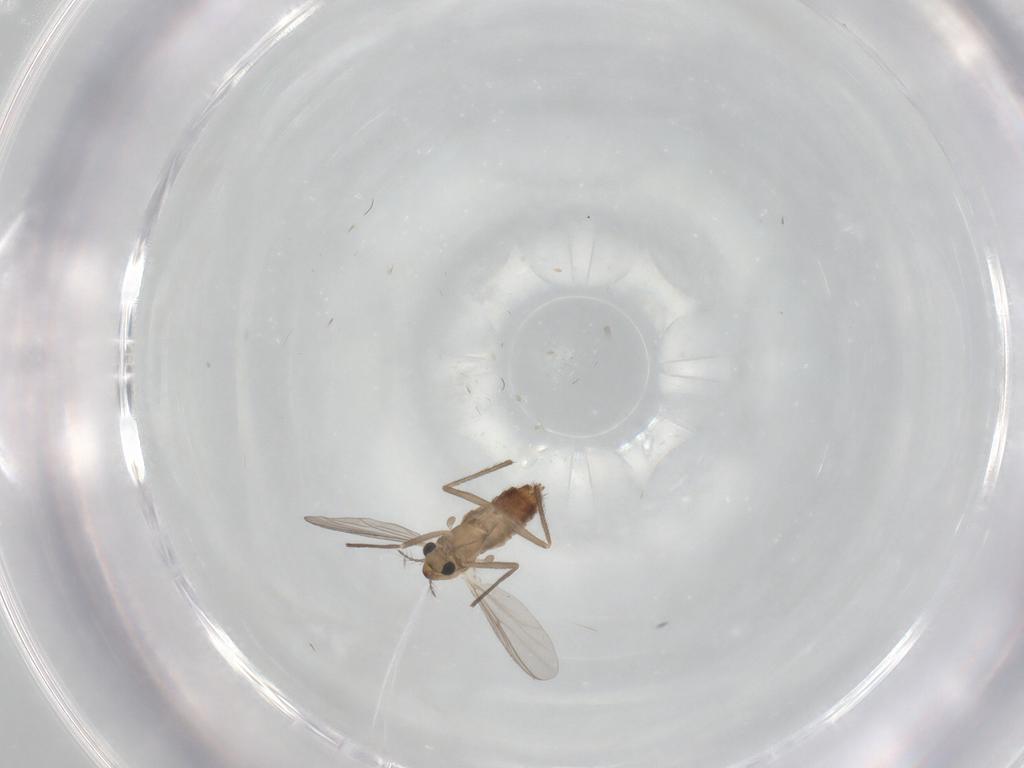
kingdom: Animalia
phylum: Arthropoda
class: Insecta
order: Diptera
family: Chironomidae
